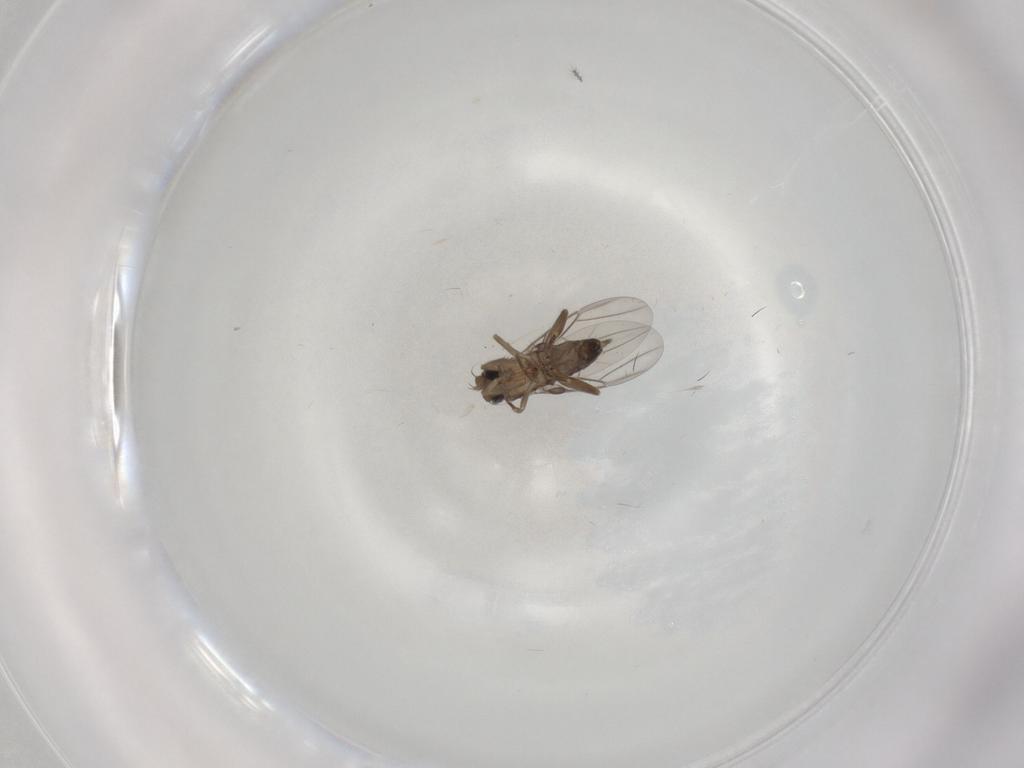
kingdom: Animalia
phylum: Arthropoda
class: Insecta
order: Diptera
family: Phoridae
